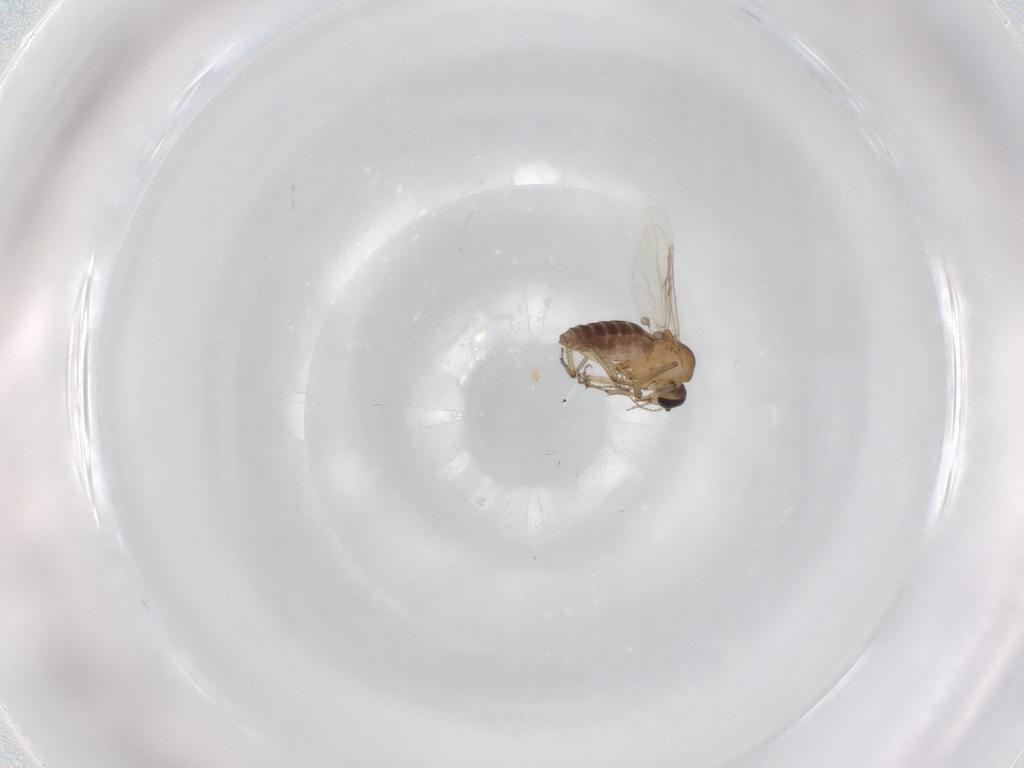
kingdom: Animalia
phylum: Arthropoda
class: Insecta
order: Diptera
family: Ceratopogonidae
